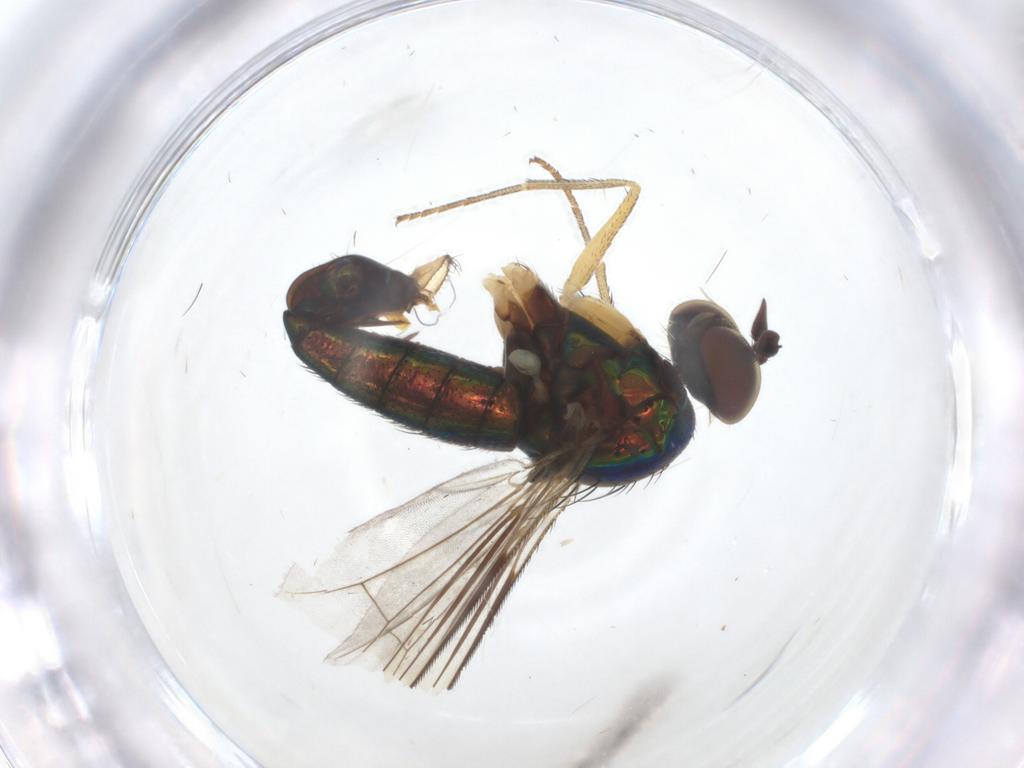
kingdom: Animalia
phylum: Arthropoda
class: Insecta
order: Diptera
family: Dolichopodidae
